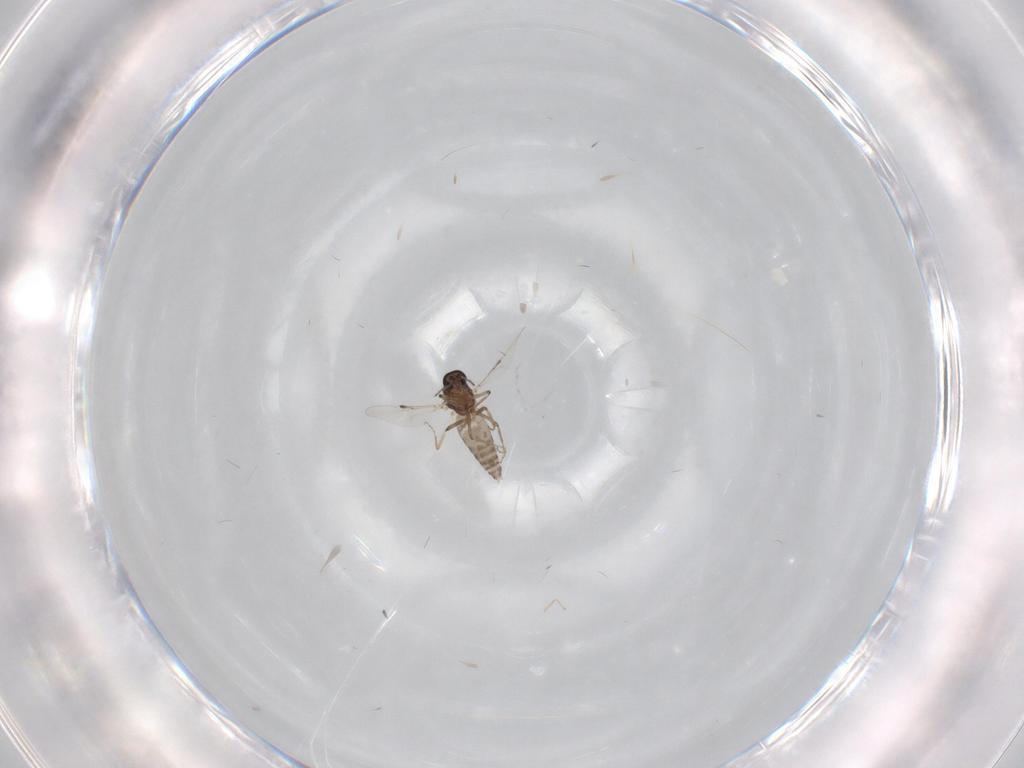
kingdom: Animalia
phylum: Arthropoda
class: Insecta
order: Diptera
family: Ceratopogonidae
